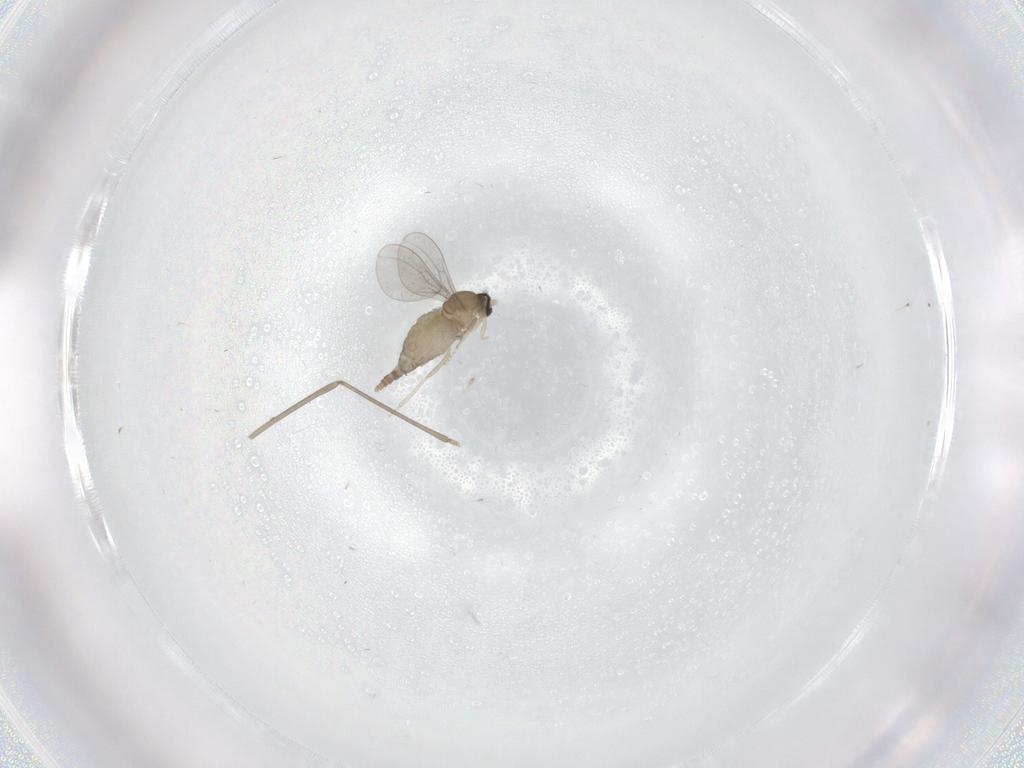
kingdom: Animalia
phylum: Arthropoda
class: Insecta
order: Diptera
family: Cecidomyiidae
